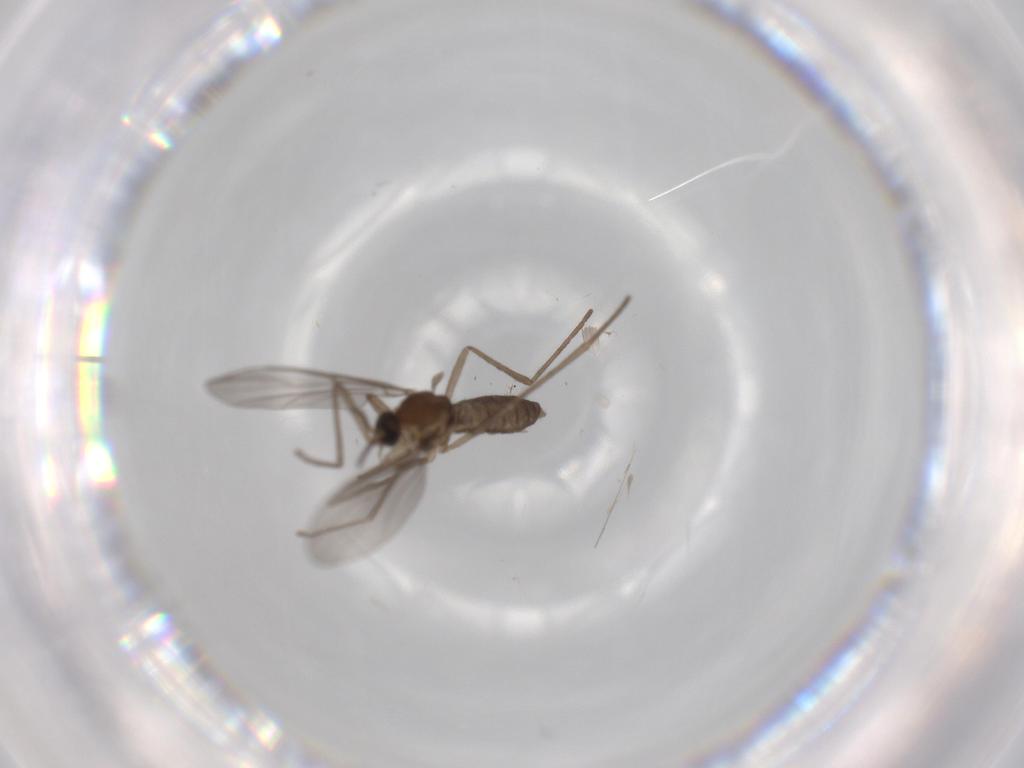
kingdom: Animalia
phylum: Arthropoda
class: Insecta
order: Diptera
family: Cecidomyiidae
